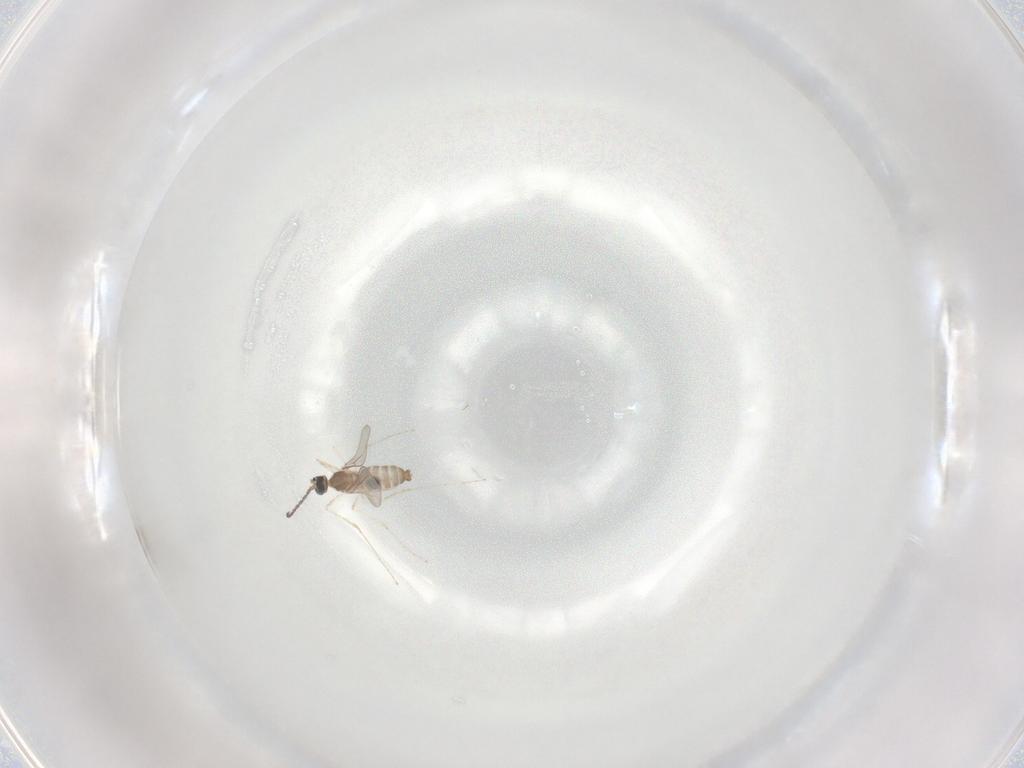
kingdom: Animalia
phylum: Arthropoda
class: Insecta
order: Diptera
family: Cecidomyiidae
